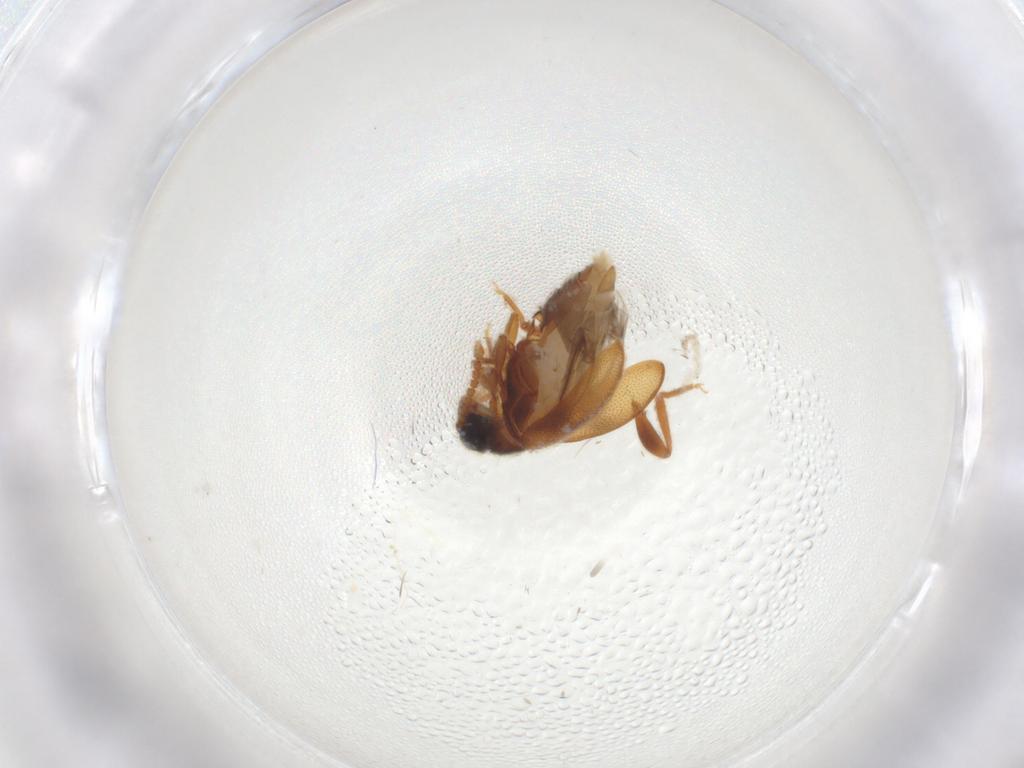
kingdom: Animalia
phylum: Arthropoda
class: Insecta
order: Coleoptera
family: Aderidae
